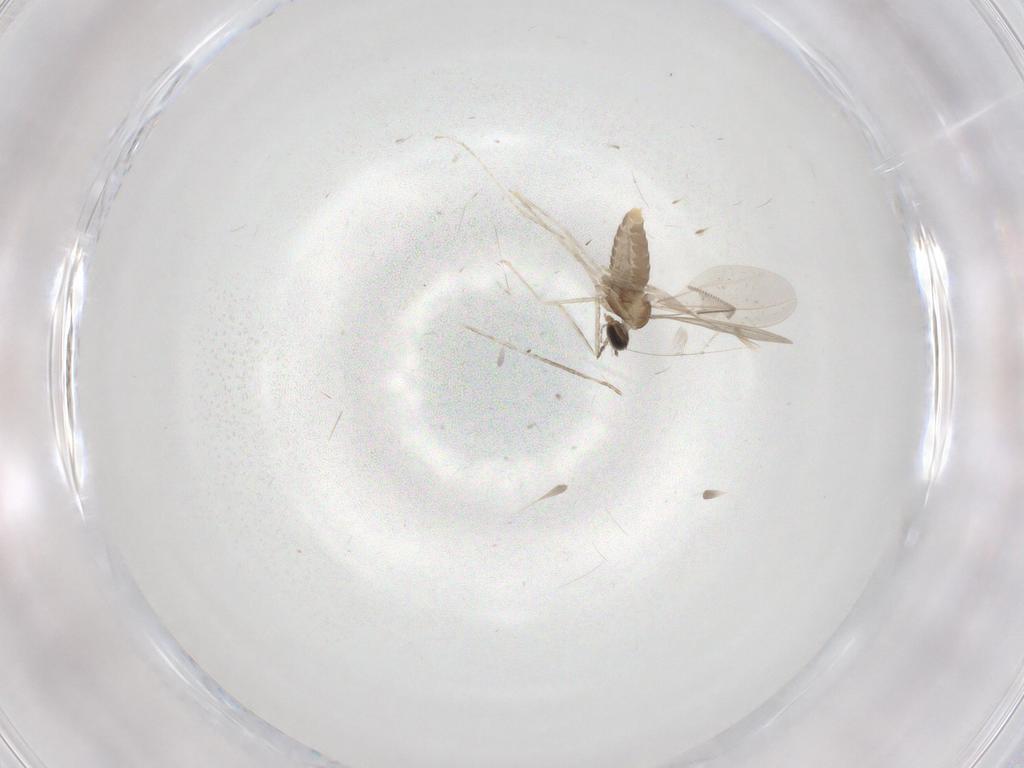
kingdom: Animalia
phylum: Arthropoda
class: Insecta
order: Diptera
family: Cecidomyiidae
